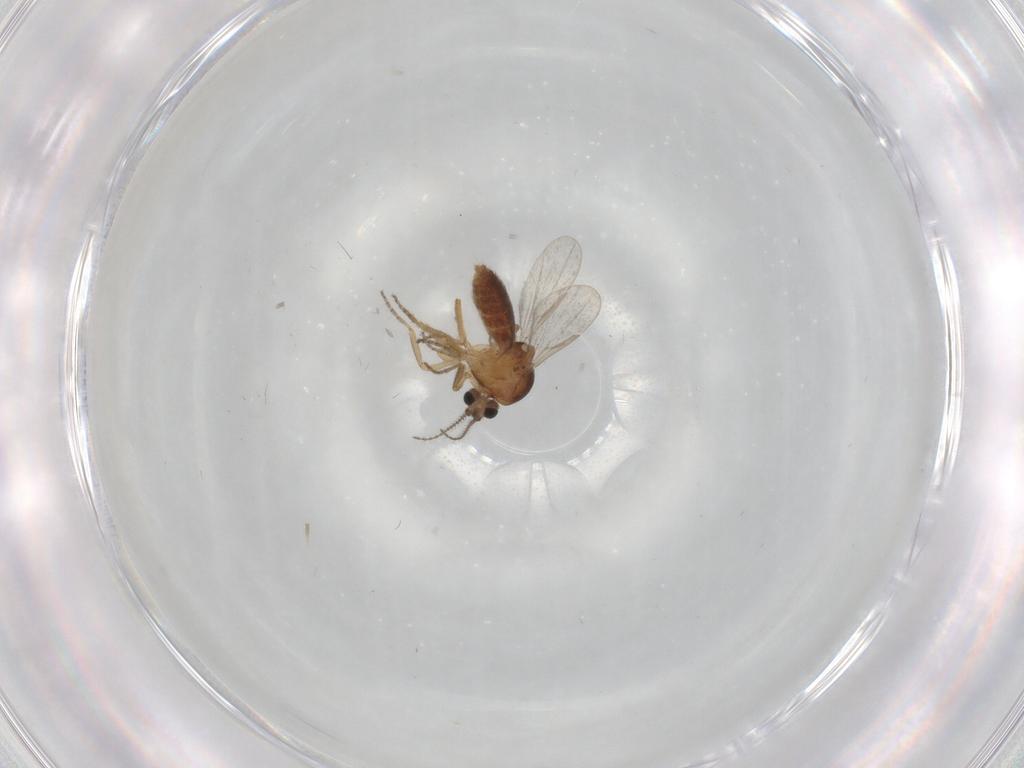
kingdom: Animalia
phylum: Arthropoda
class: Insecta
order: Diptera
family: Ceratopogonidae
